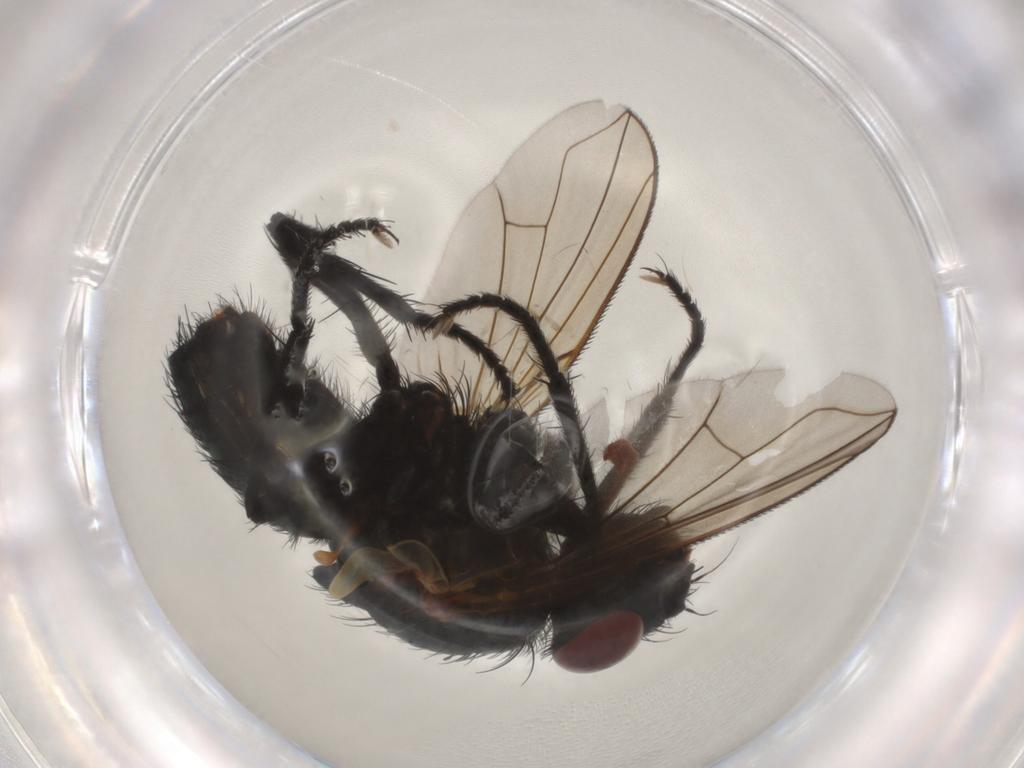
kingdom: Animalia
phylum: Arthropoda
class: Insecta
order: Diptera
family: Calliphoridae
